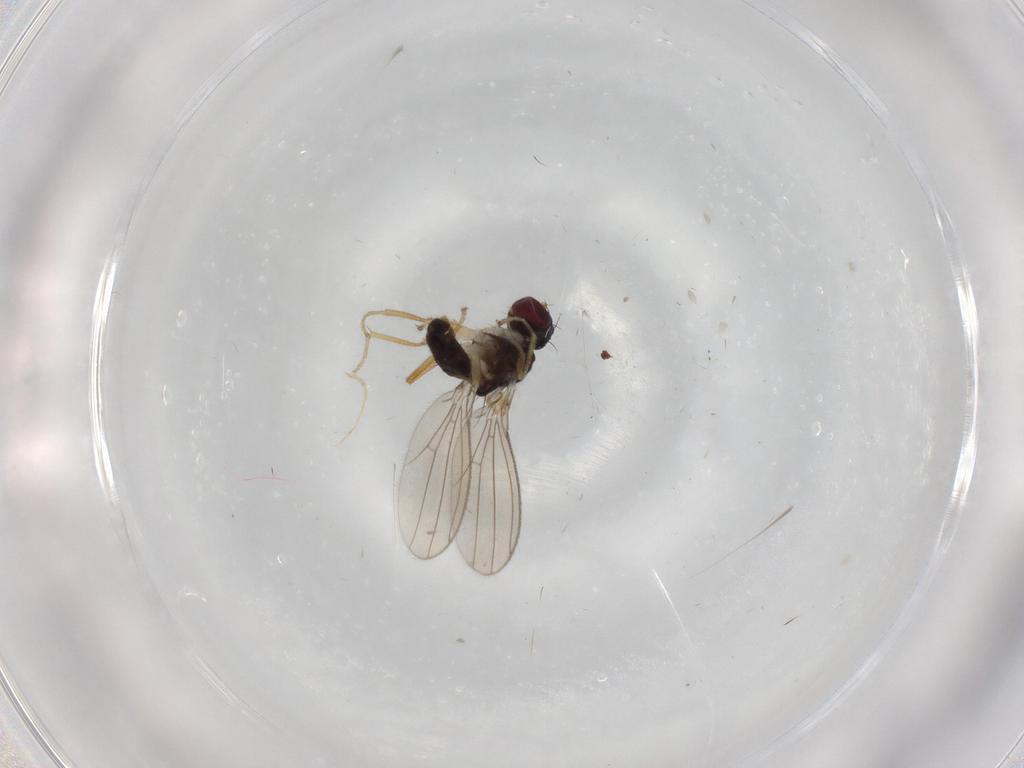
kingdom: Animalia
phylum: Arthropoda
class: Insecta
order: Diptera
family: Anthomyzidae
